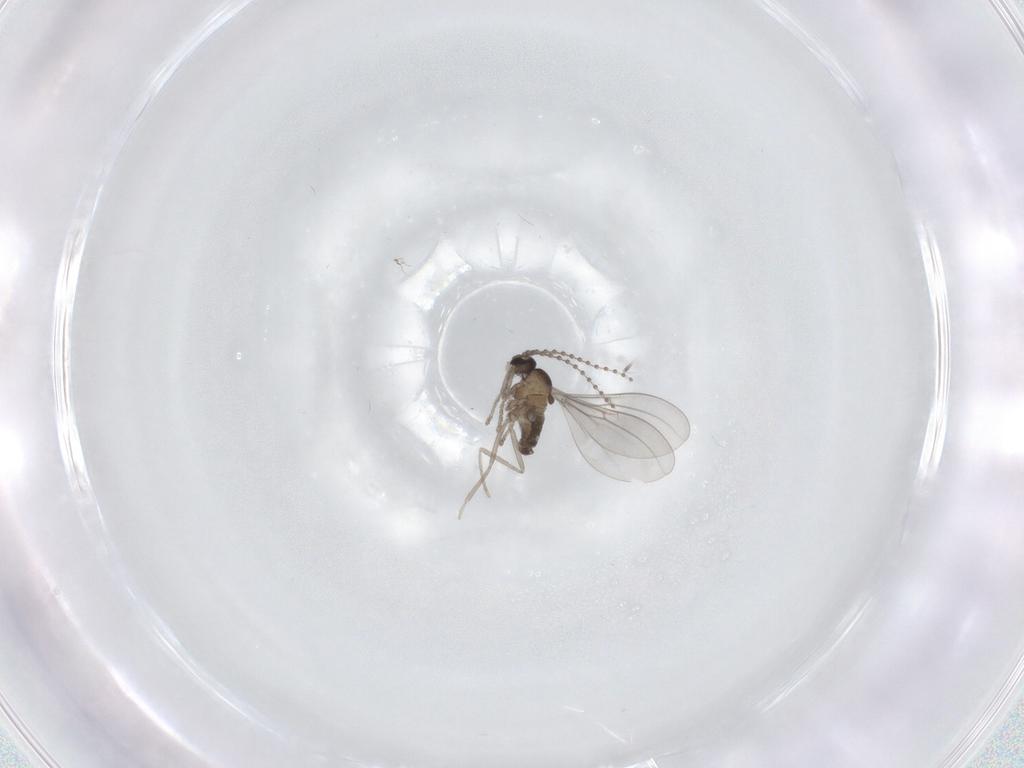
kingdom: Animalia
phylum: Arthropoda
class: Insecta
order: Diptera
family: Cecidomyiidae
